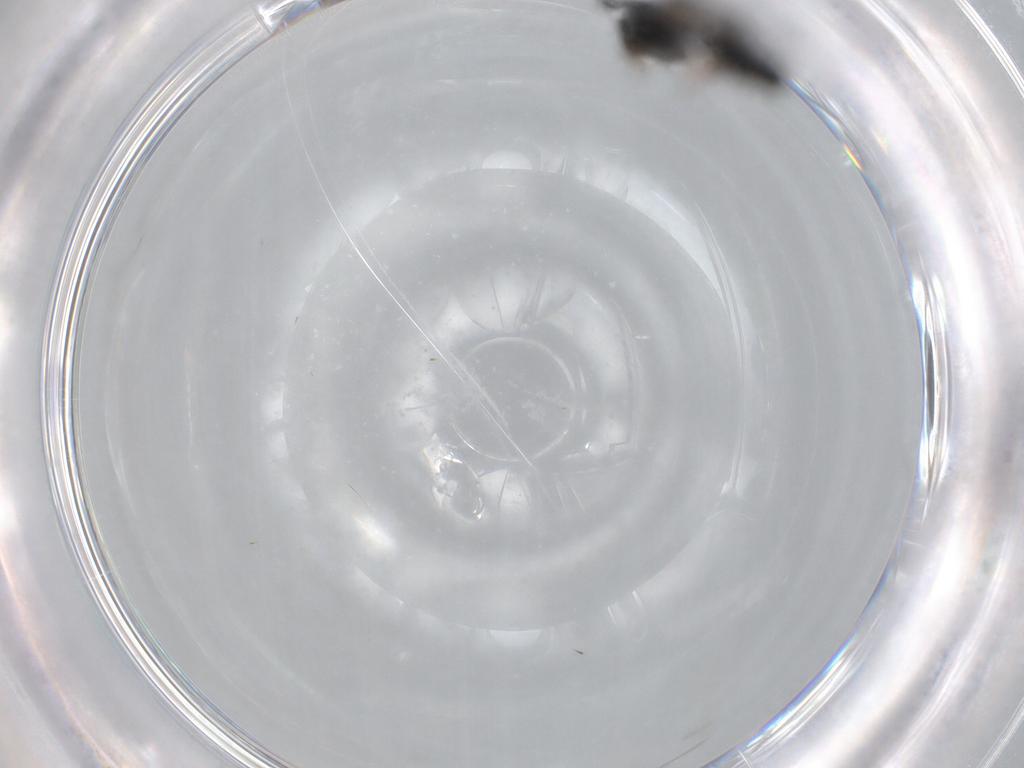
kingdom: Animalia
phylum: Arthropoda
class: Insecta
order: Hymenoptera
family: Aphelinidae
